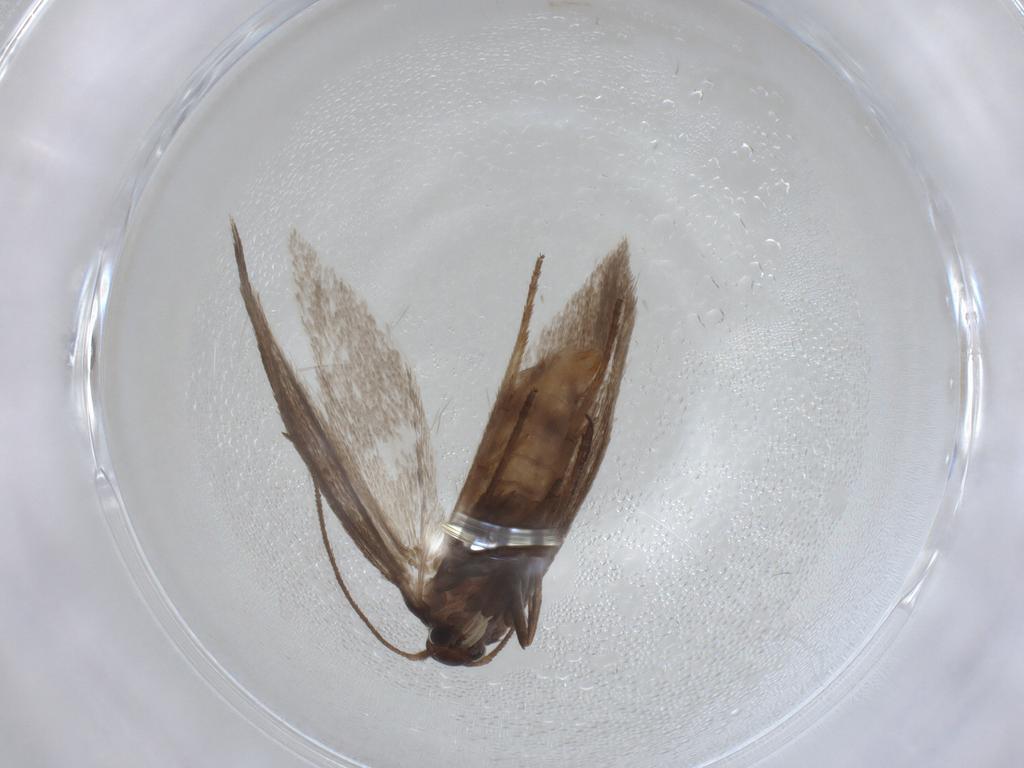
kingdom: Animalia
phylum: Arthropoda
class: Insecta
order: Lepidoptera
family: Limacodidae
